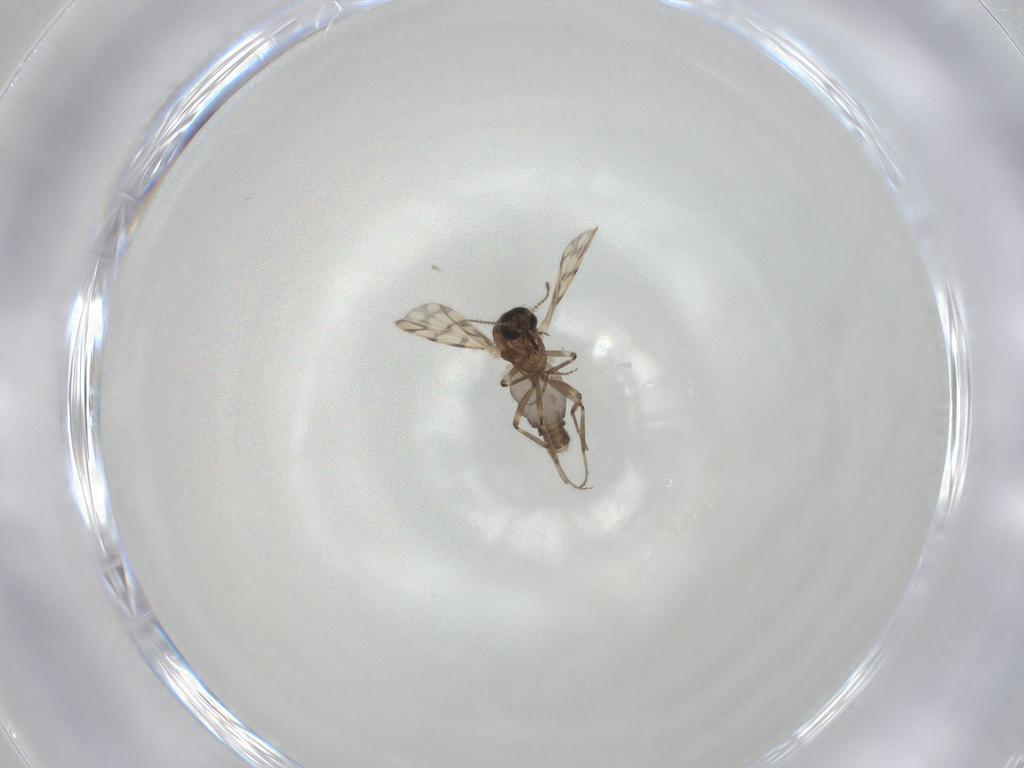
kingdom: Animalia
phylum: Arthropoda
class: Insecta
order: Diptera
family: Ceratopogonidae
